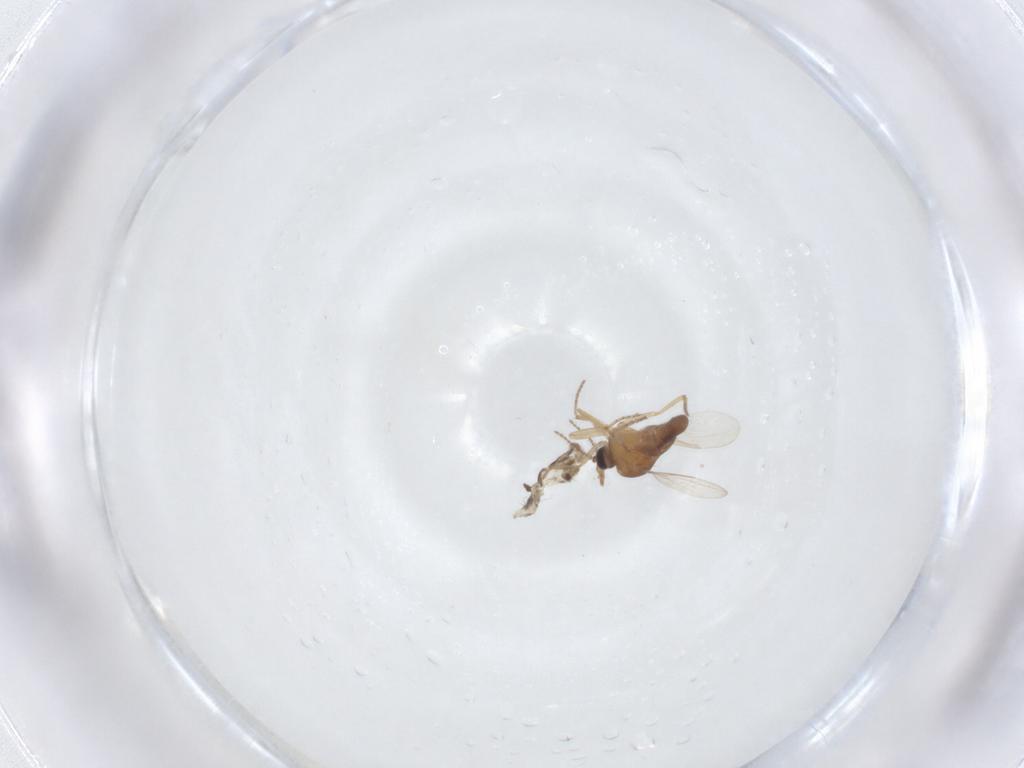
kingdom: Animalia
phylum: Arthropoda
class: Insecta
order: Diptera
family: Ceratopogonidae
